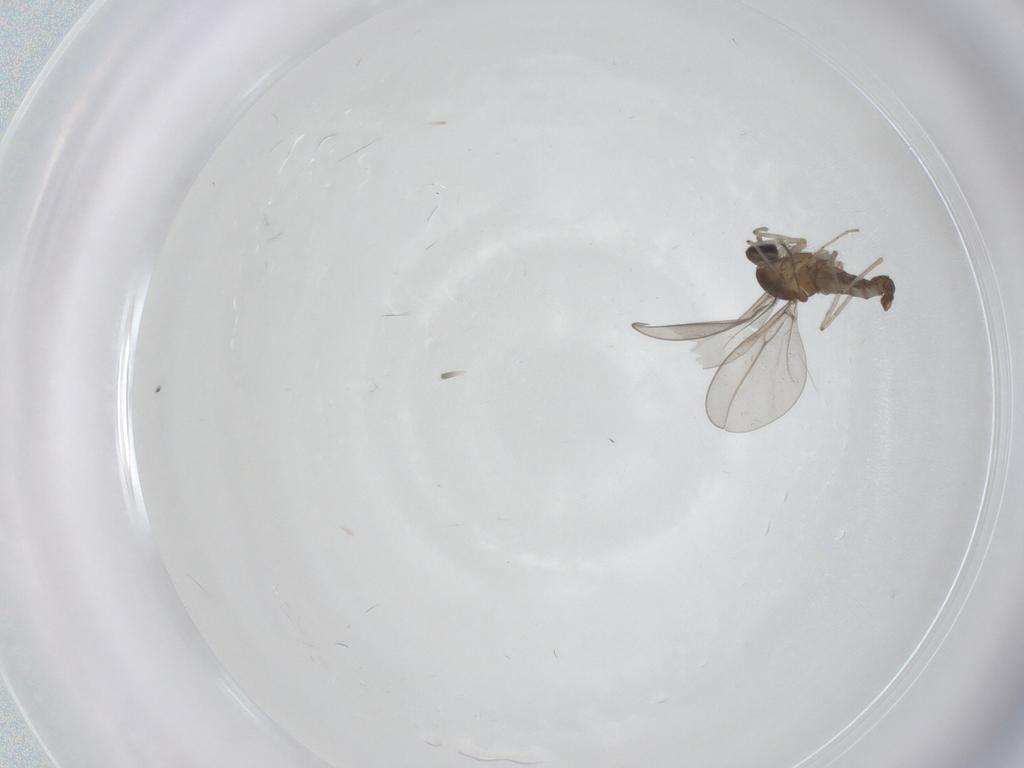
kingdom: Animalia
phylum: Arthropoda
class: Insecta
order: Diptera
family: Cecidomyiidae
